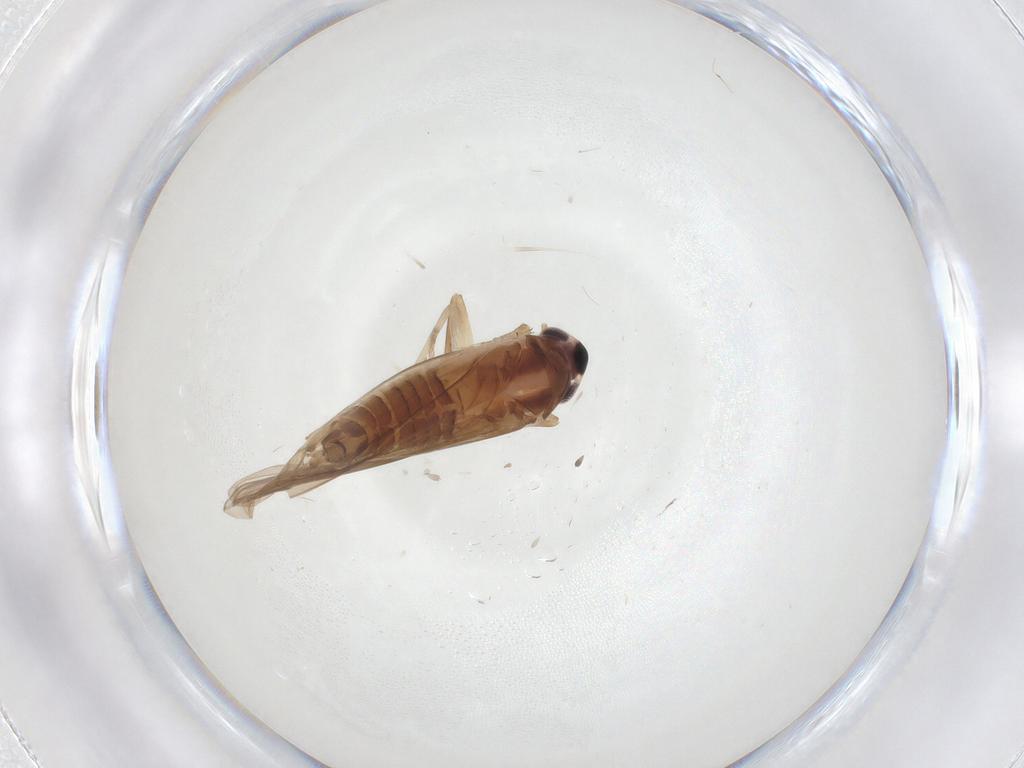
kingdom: Animalia
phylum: Arthropoda
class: Insecta
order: Hemiptera
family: Cicadellidae
